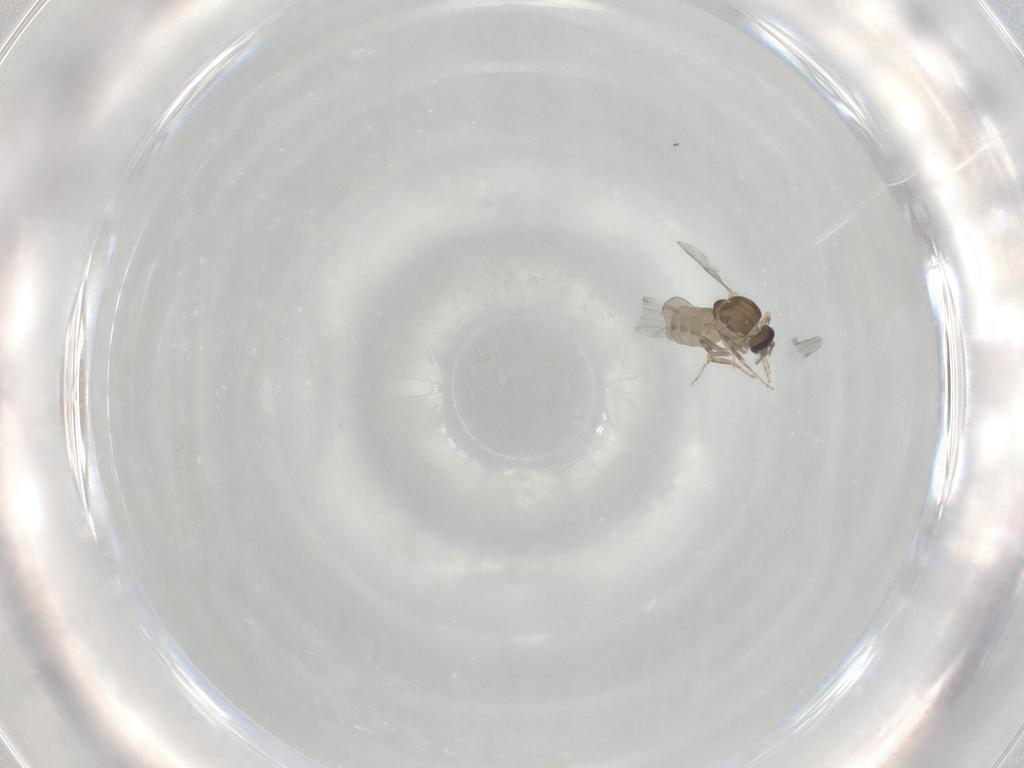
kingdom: Animalia
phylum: Arthropoda
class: Insecta
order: Diptera
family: Ceratopogonidae
